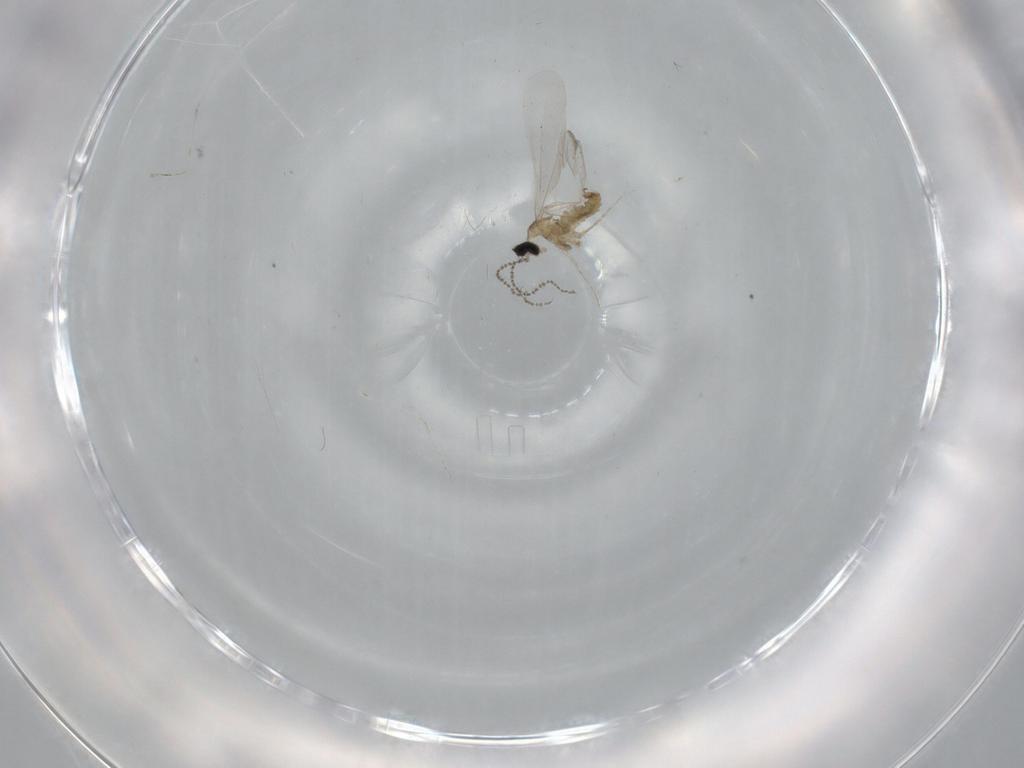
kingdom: Animalia
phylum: Arthropoda
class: Insecta
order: Diptera
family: Cecidomyiidae
